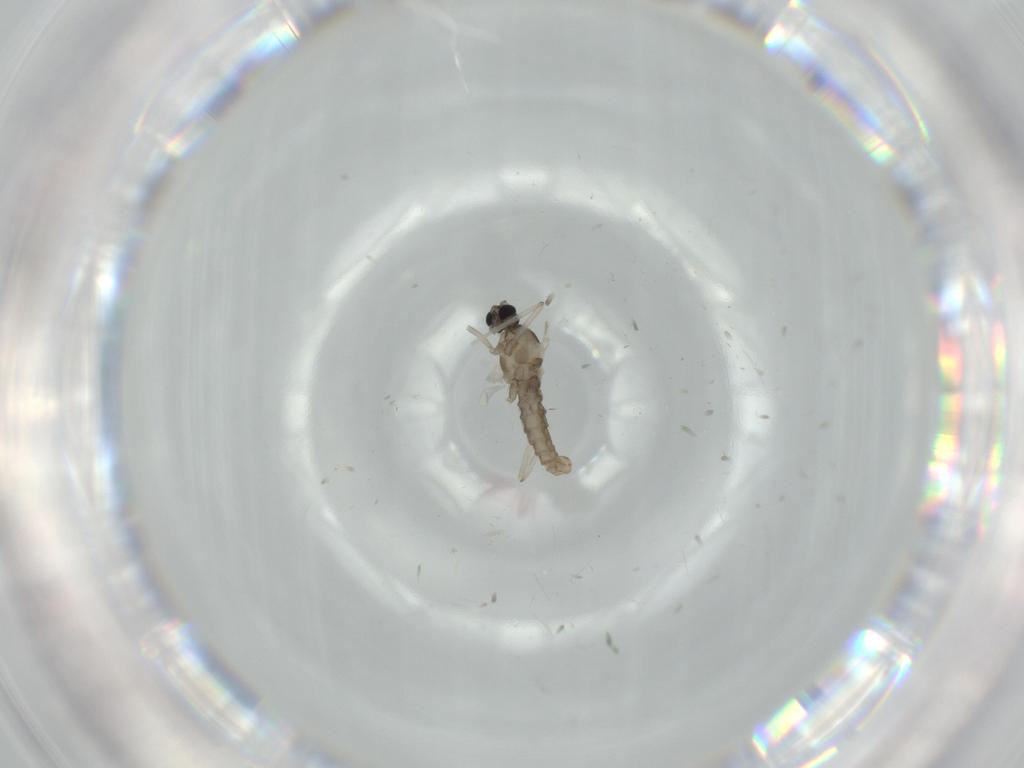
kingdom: Animalia
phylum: Arthropoda
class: Insecta
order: Diptera
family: Cecidomyiidae
